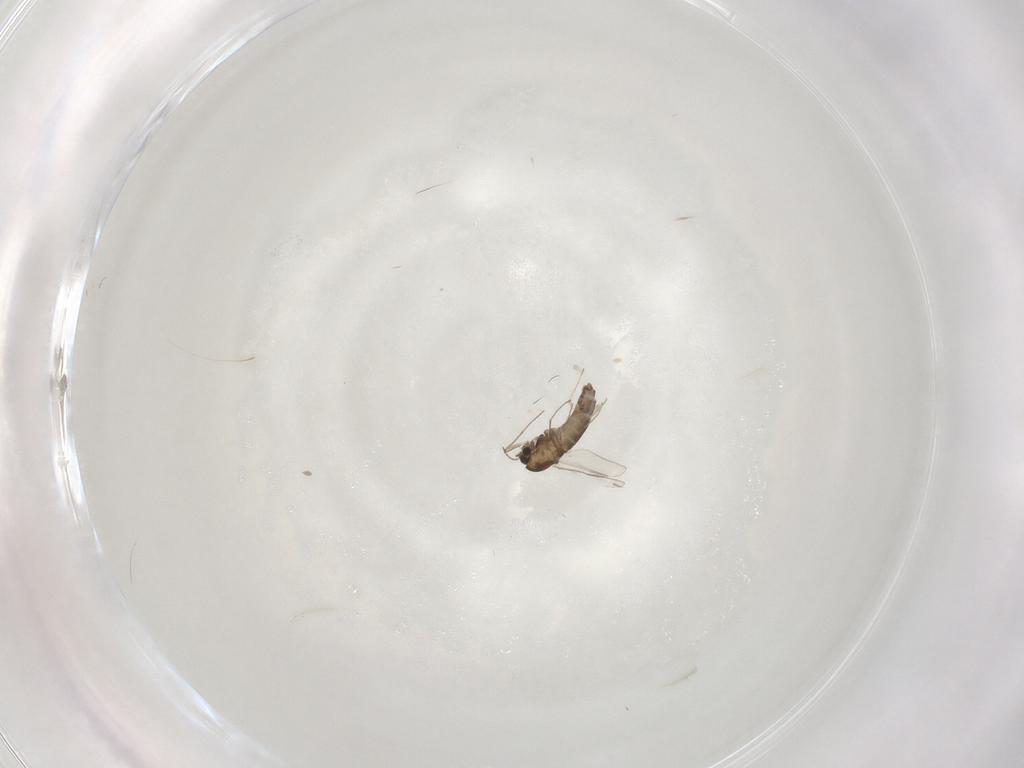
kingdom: Animalia
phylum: Arthropoda
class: Insecta
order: Diptera
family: Chironomidae
